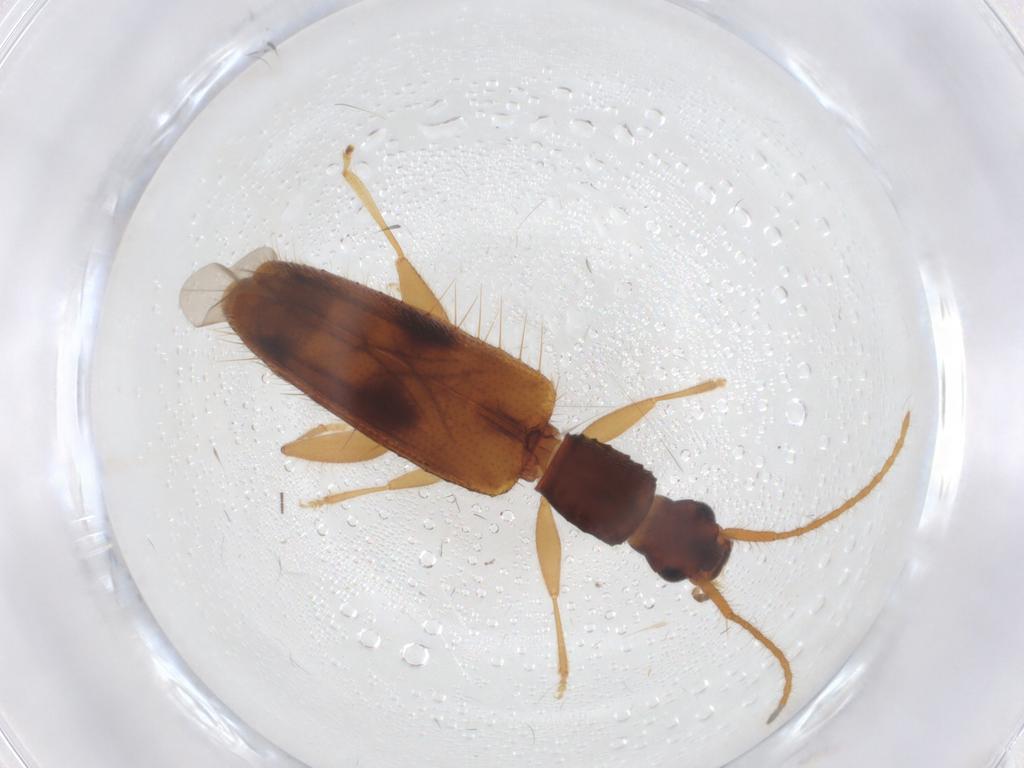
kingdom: Animalia
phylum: Arthropoda
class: Insecta
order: Coleoptera
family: Silvanidae
